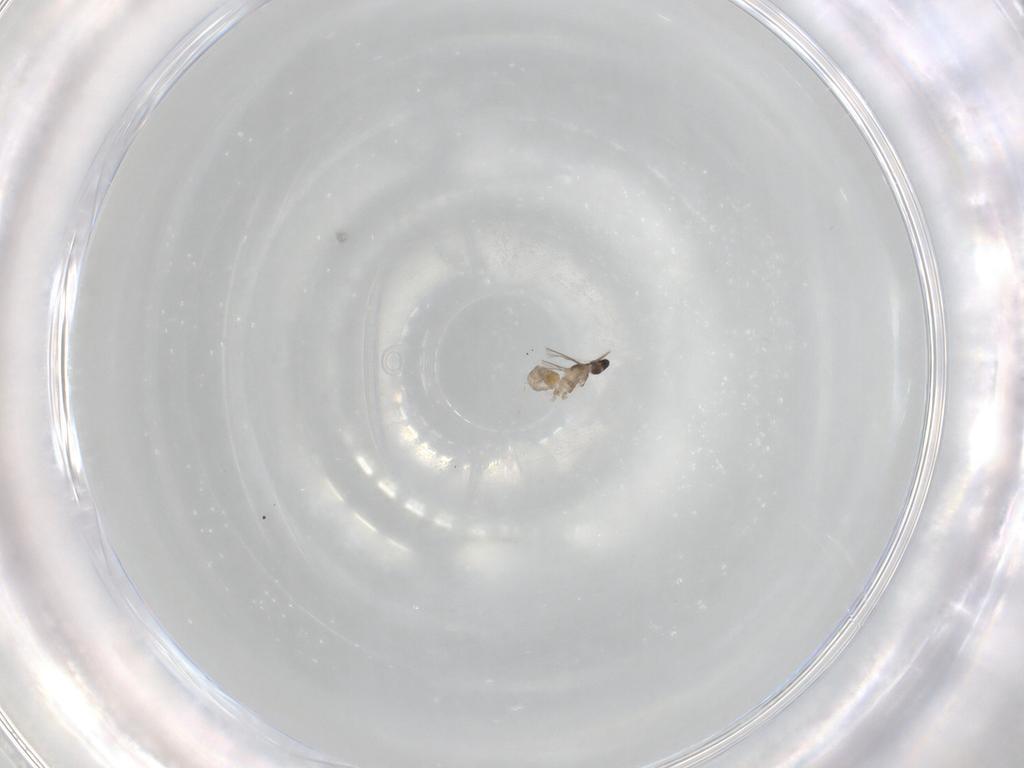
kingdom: Animalia
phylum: Arthropoda
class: Insecta
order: Diptera
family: Cecidomyiidae
